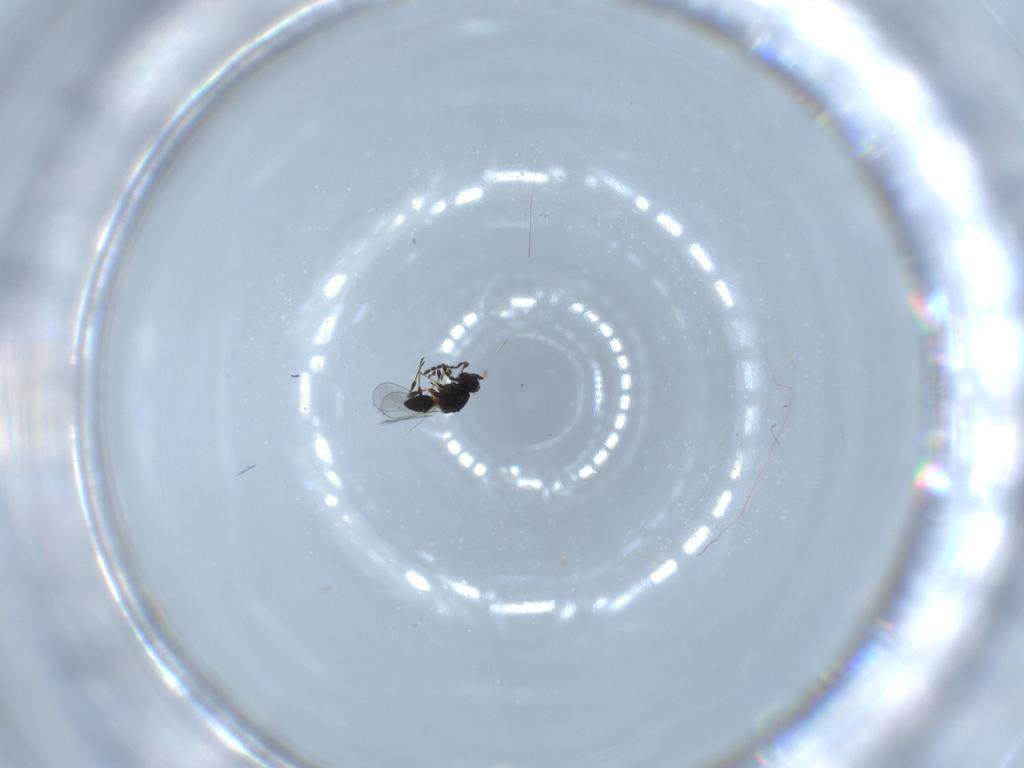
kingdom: Animalia
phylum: Arthropoda
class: Insecta
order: Hymenoptera
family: Platygastridae
